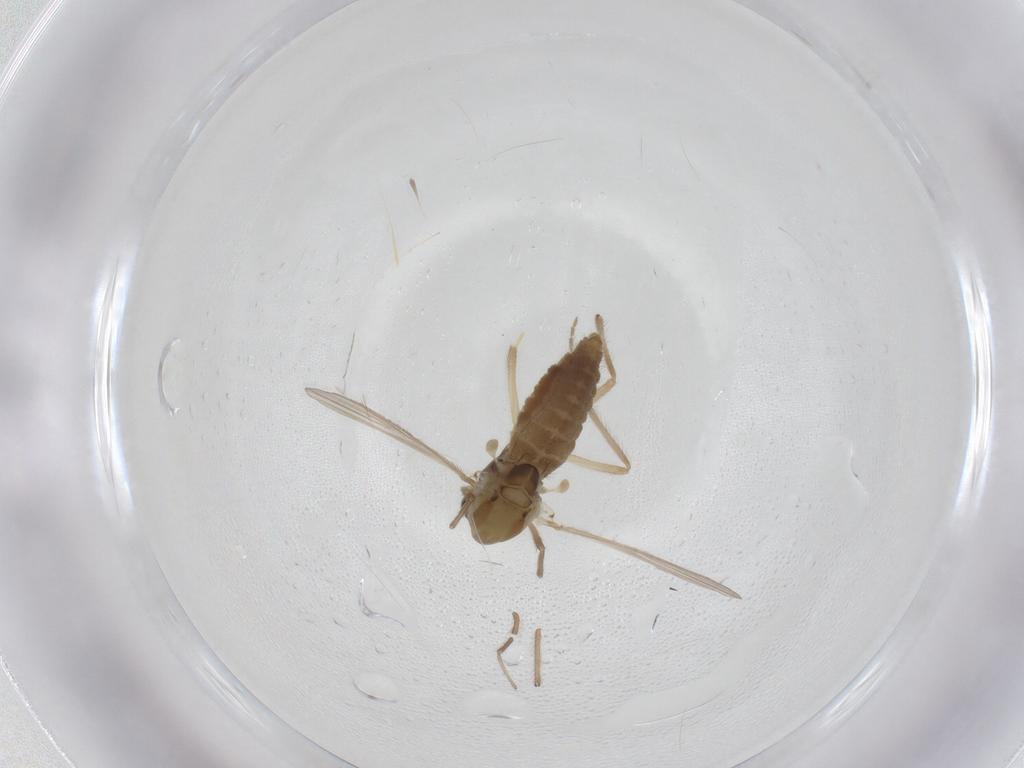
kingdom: Animalia
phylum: Arthropoda
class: Insecta
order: Diptera
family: Chironomidae
